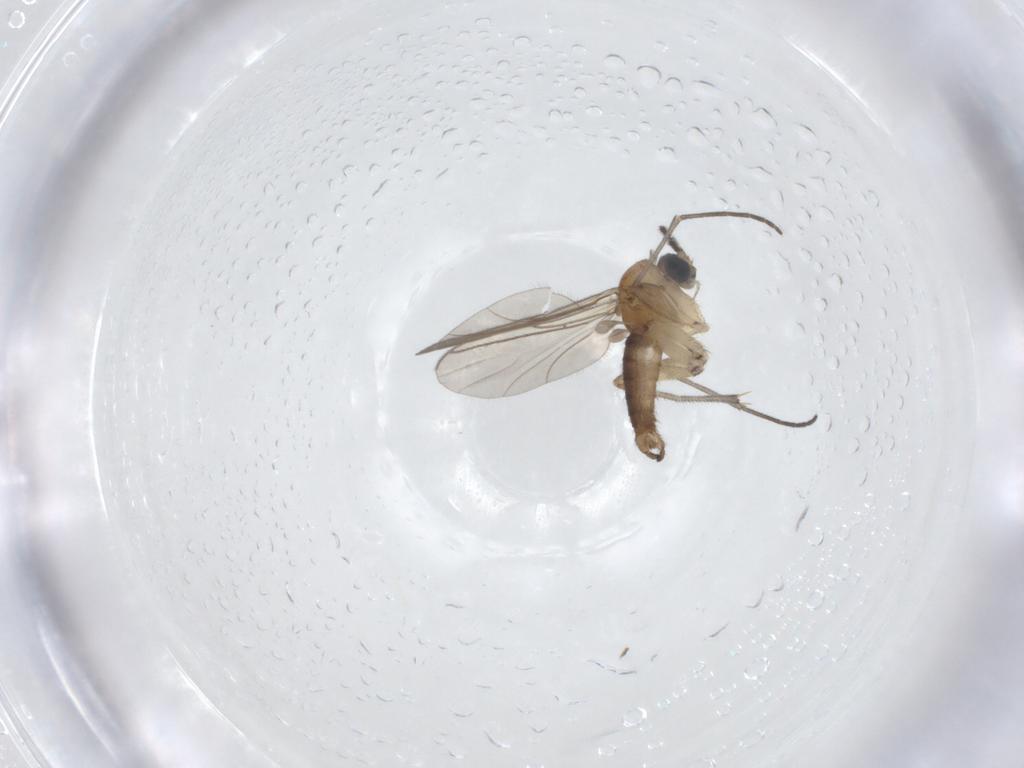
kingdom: Animalia
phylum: Arthropoda
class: Insecta
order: Diptera
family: Sciaridae
